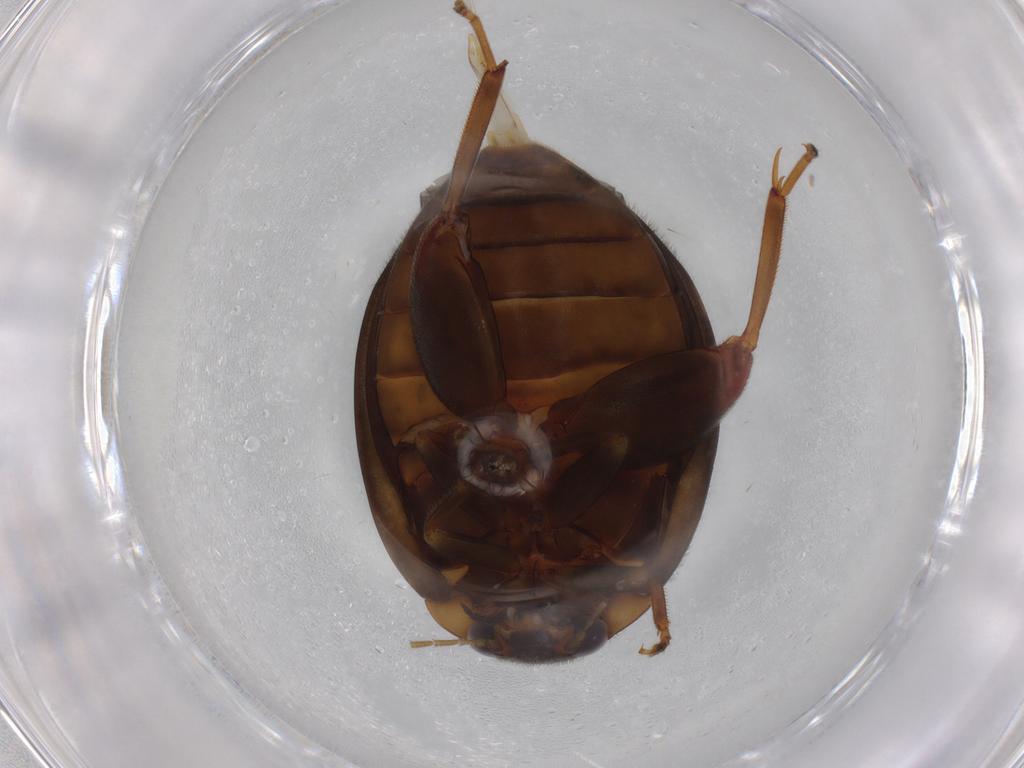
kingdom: Animalia
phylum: Arthropoda
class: Insecta
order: Coleoptera
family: Mycteridae
